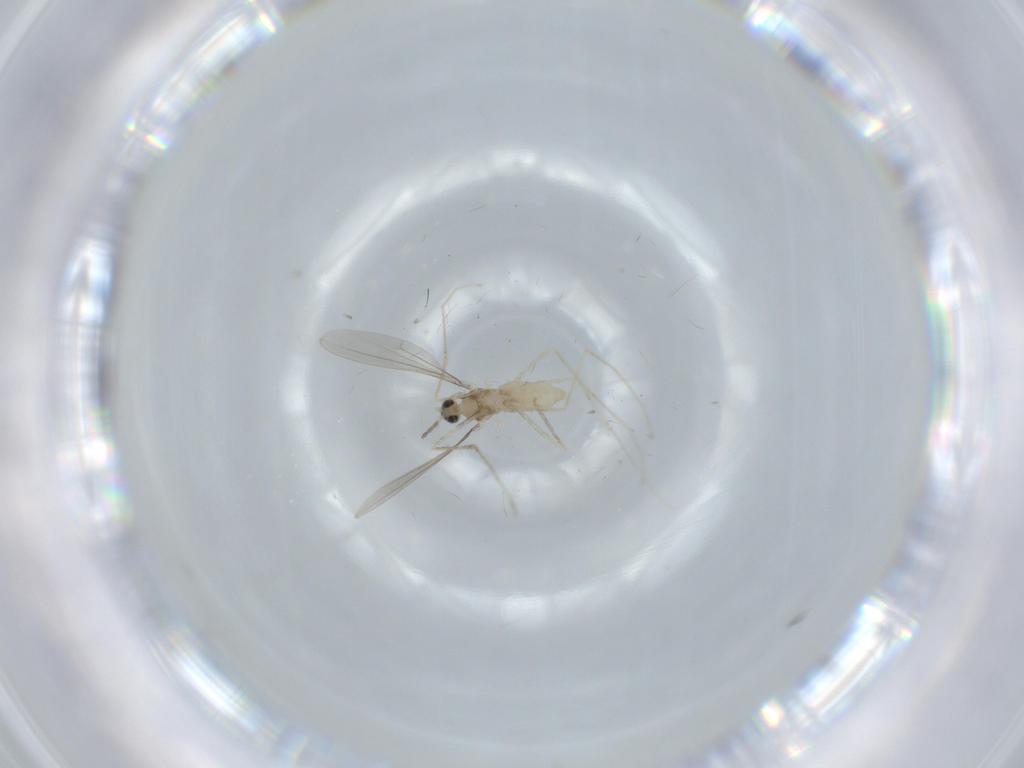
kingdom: Animalia
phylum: Arthropoda
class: Insecta
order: Diptera
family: Cecidomyiidae
